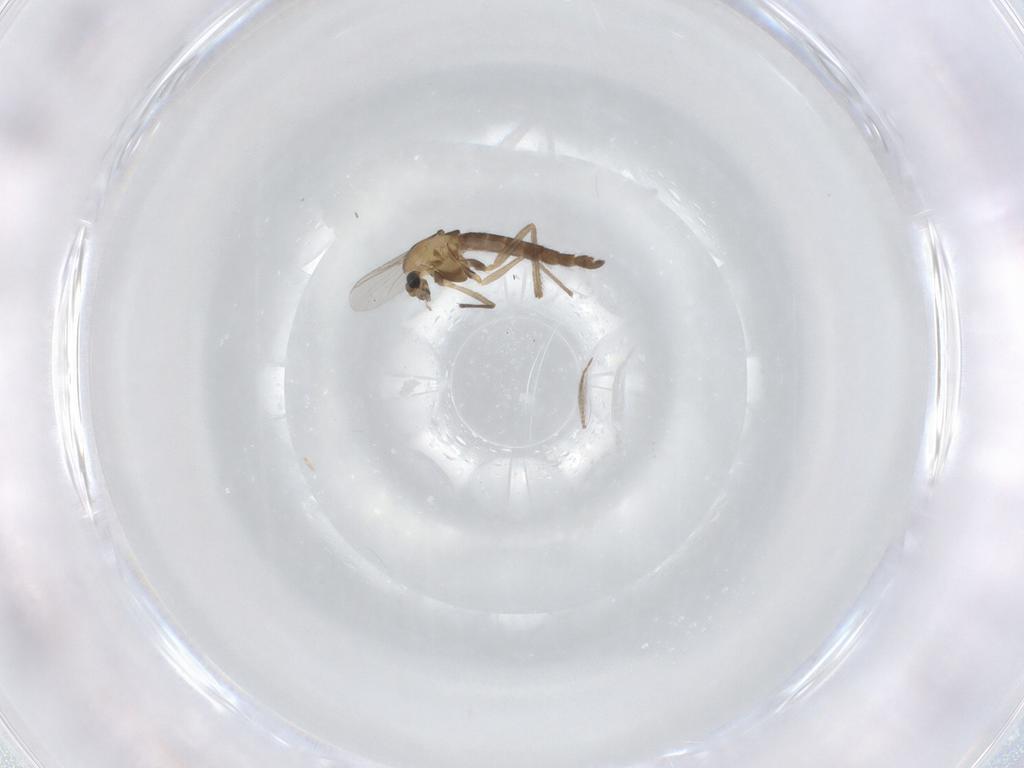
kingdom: Animalia
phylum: Arthropoda
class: Insecta
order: Diptera
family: Chironomidae
